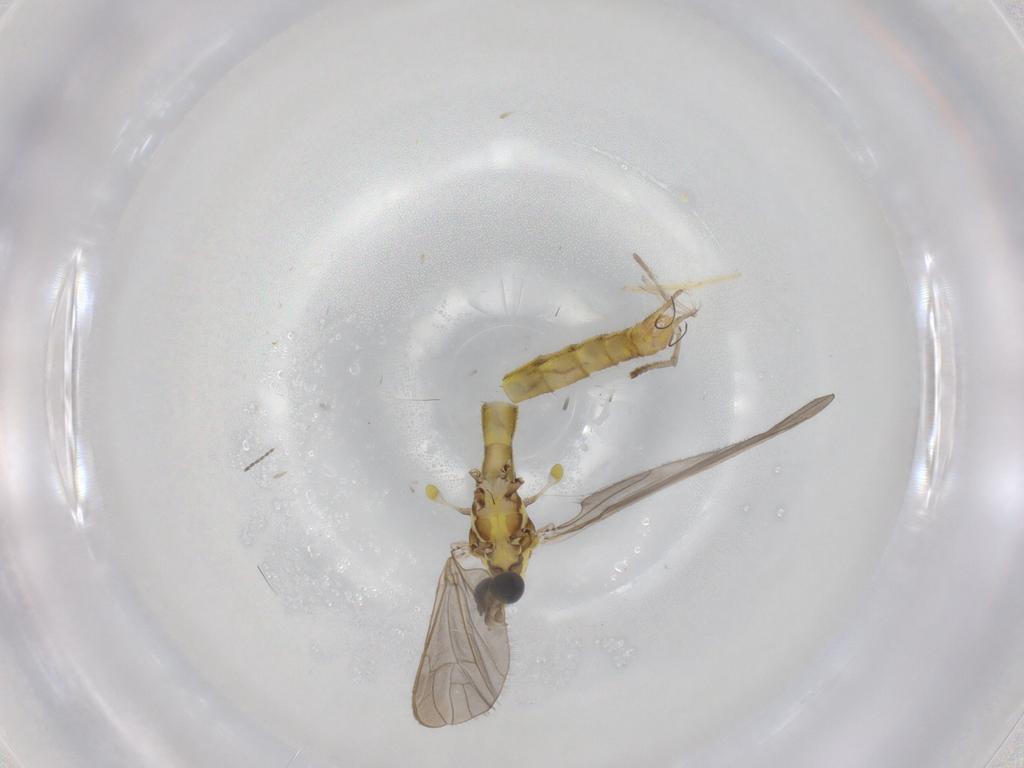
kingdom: Animalia
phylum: Arthropoda
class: Insecta
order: Diptera
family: Limoniidae
